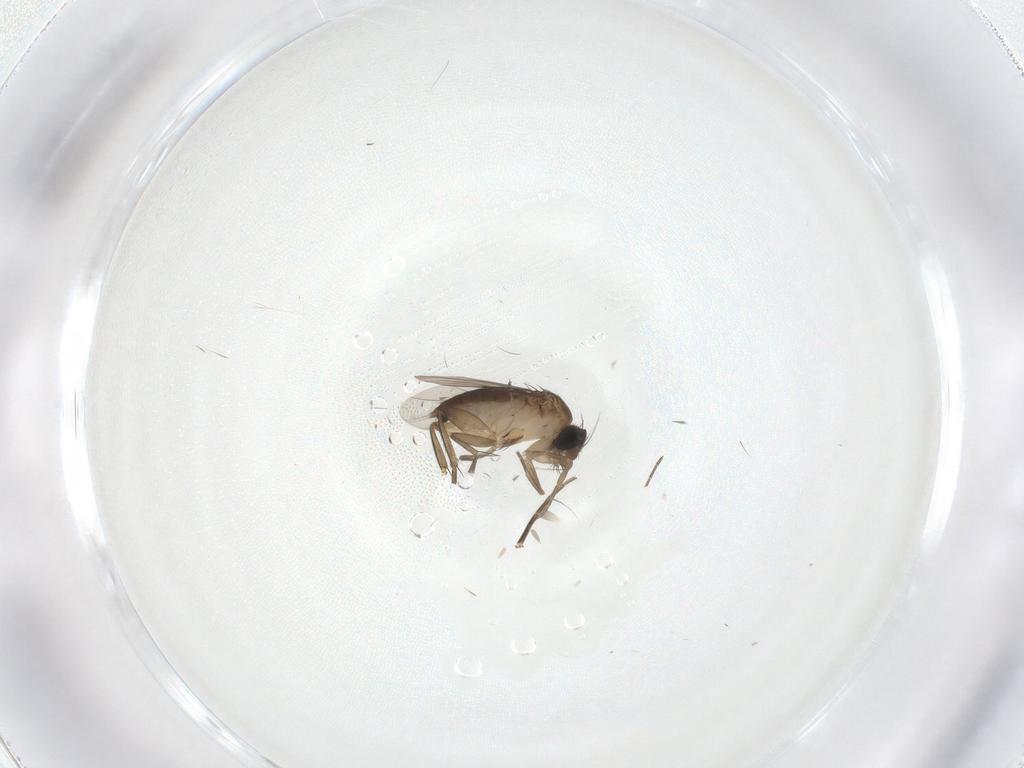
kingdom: Animalia
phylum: Arthropoda
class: Insecta
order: Diptera
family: Phoridae
